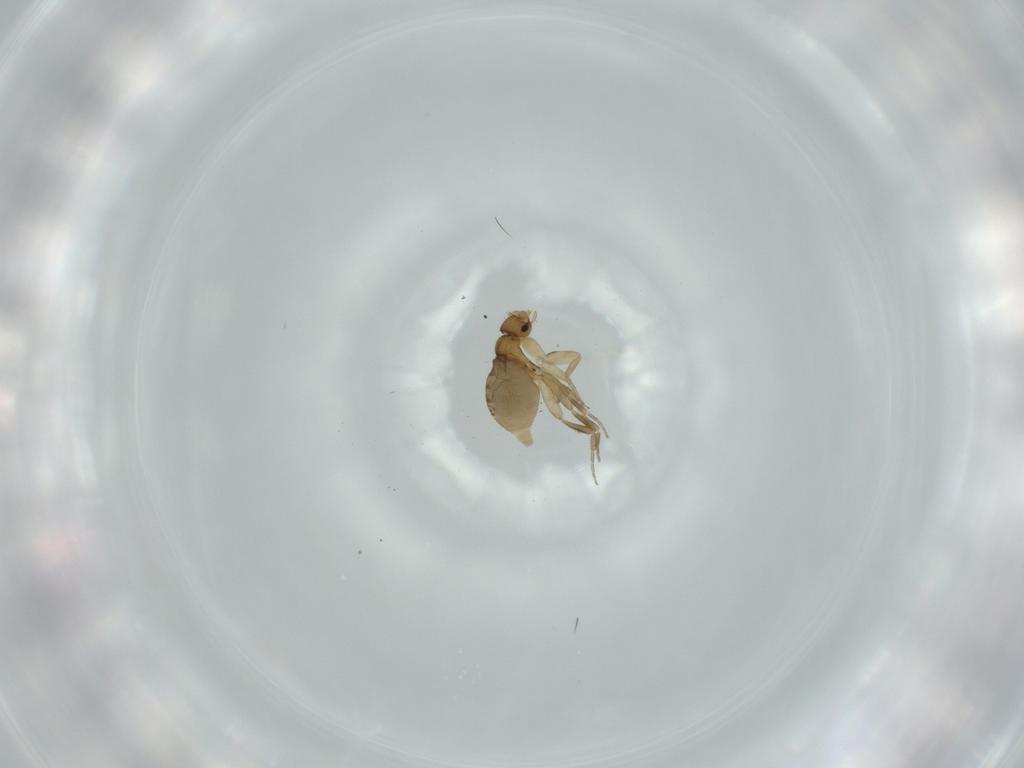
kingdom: Animalia
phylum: Arthropoda
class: Insecta
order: Diptera
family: Phoridae
